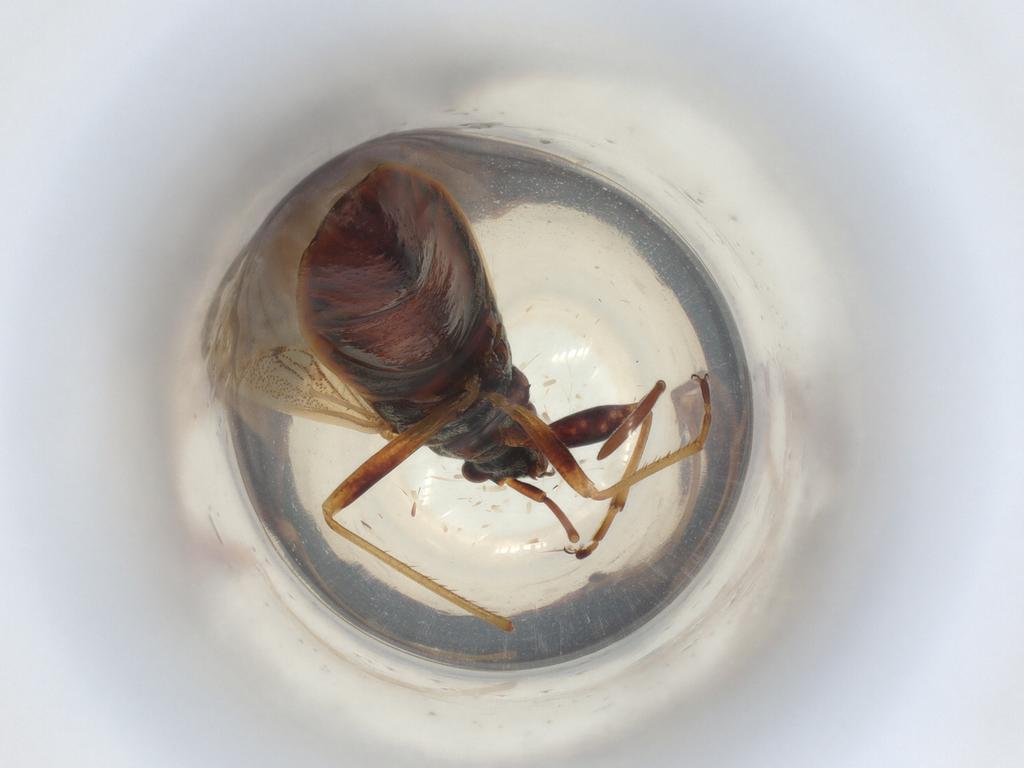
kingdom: Animalia
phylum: Arthropoda
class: Insecta
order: Hemiptera
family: Rhyparochromidae
